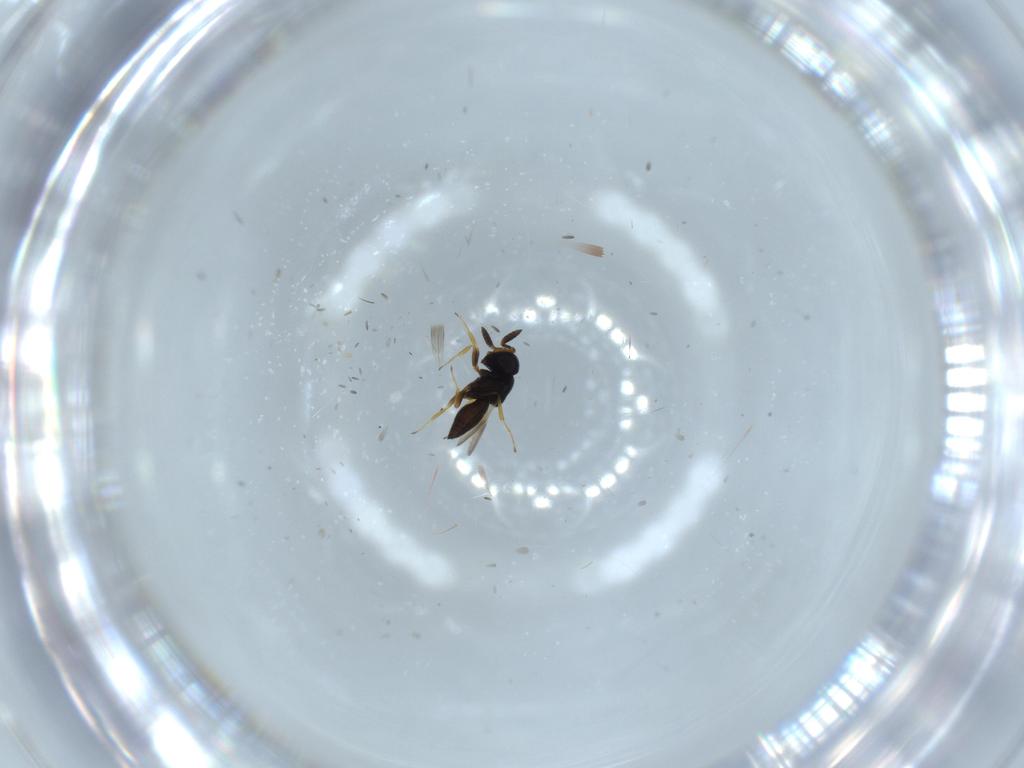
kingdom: Animalia
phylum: Arthropoda
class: Insecta
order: Hymenoptera
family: Scelionidae
